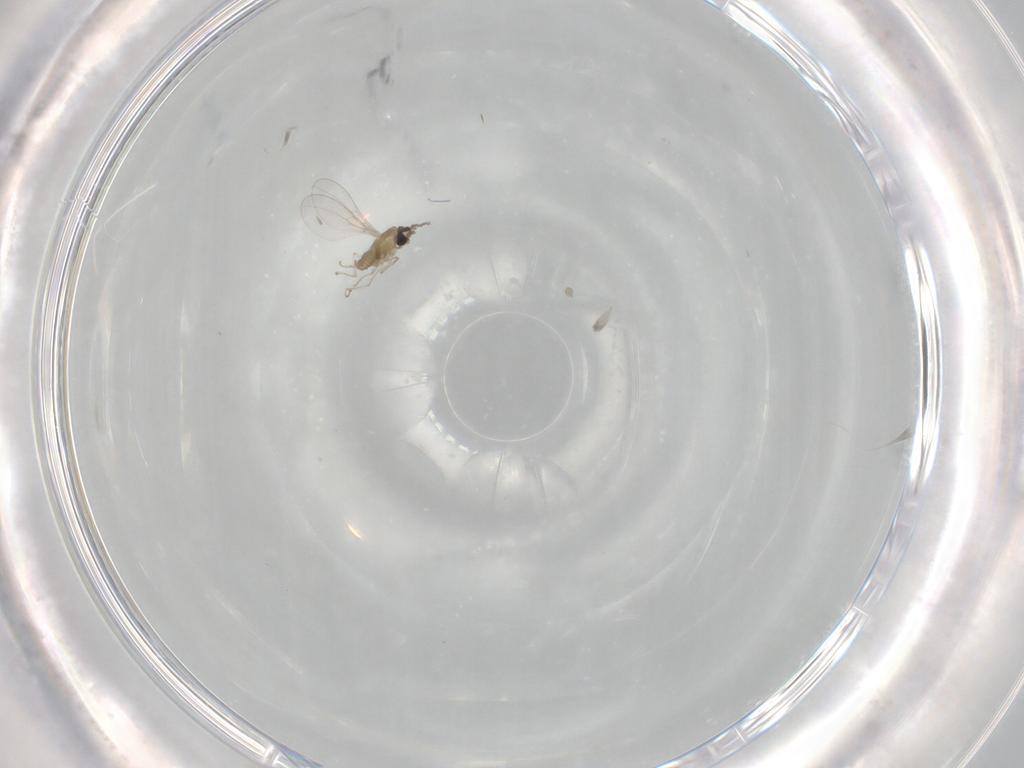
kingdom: Animalia
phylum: Arthropoda
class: Insecta
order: Diptera
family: Cecidomyiidae
